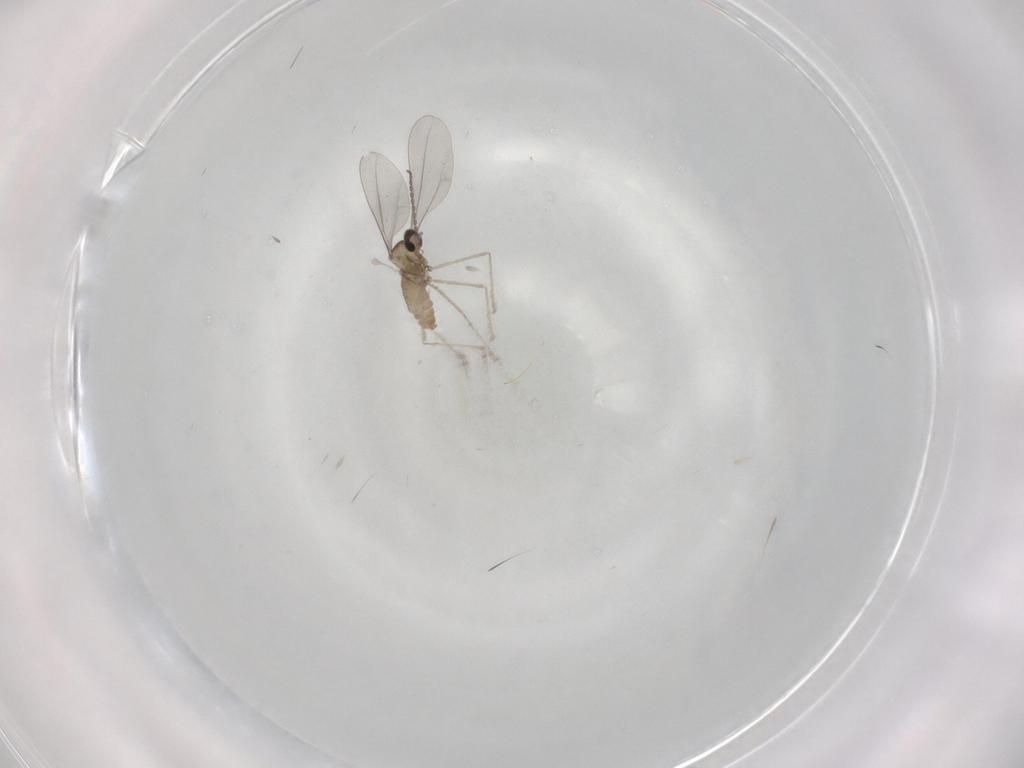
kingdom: Animalia
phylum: Arthropoda
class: Insecta
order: Diptera
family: Cecidomyiidae
